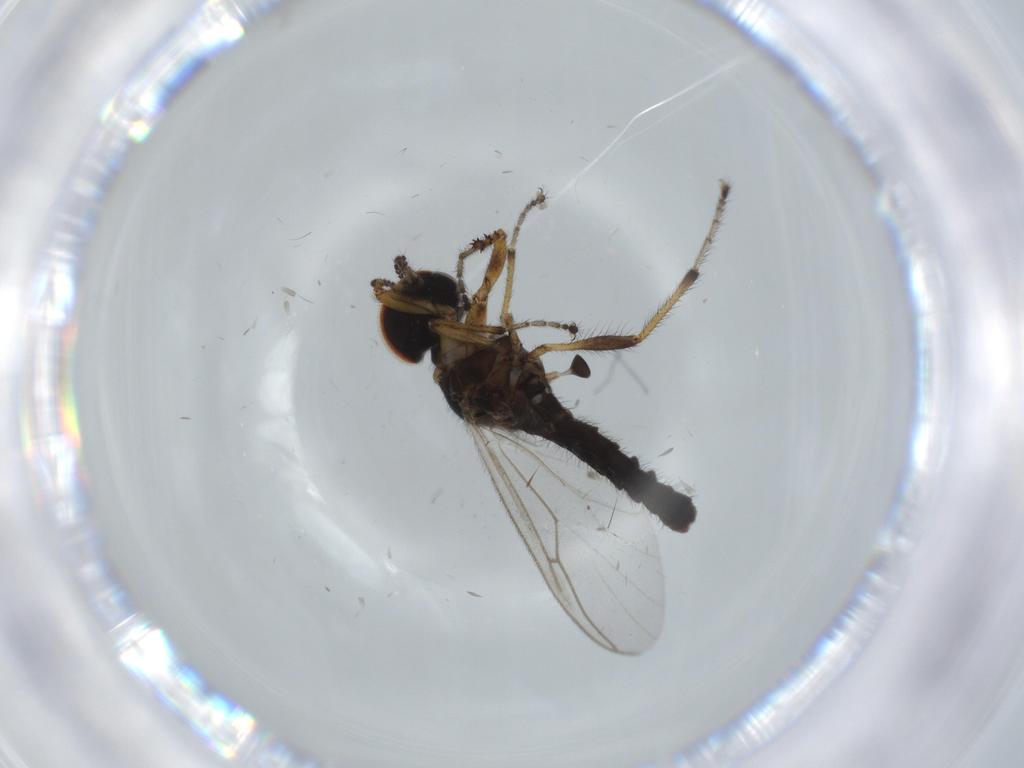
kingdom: Animalia
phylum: Arthropoda
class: Insecta
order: Diptera
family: Bibionidae
